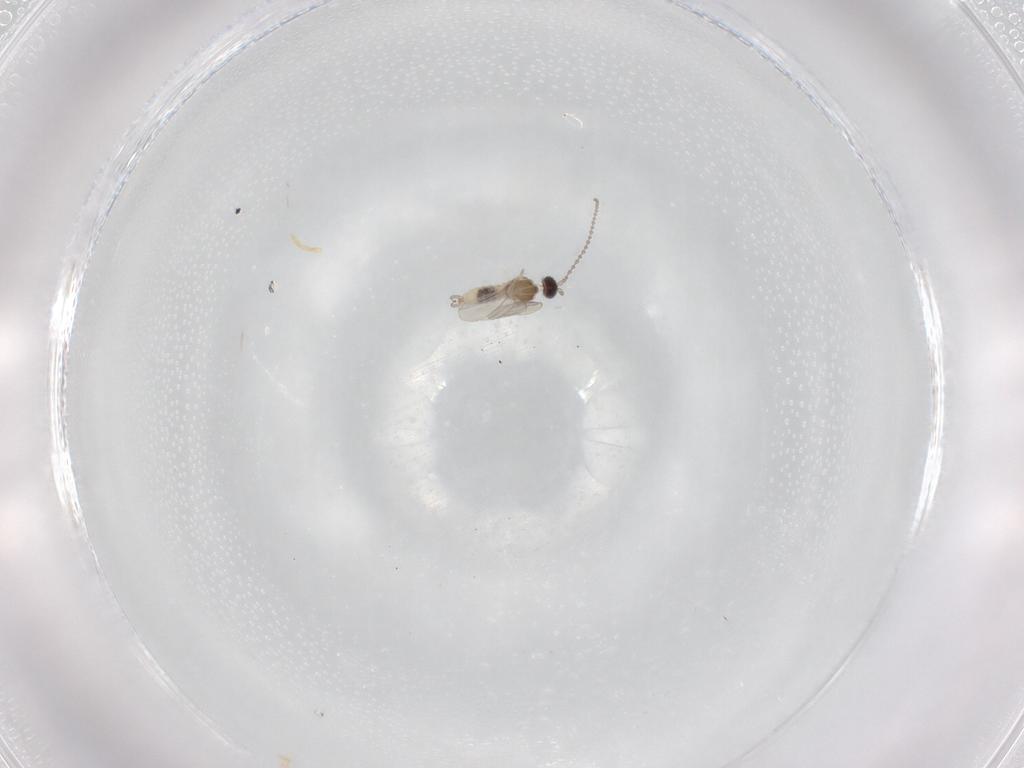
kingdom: Animalia
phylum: Arthropoda
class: Insecta
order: Diptera
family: Phoridae
